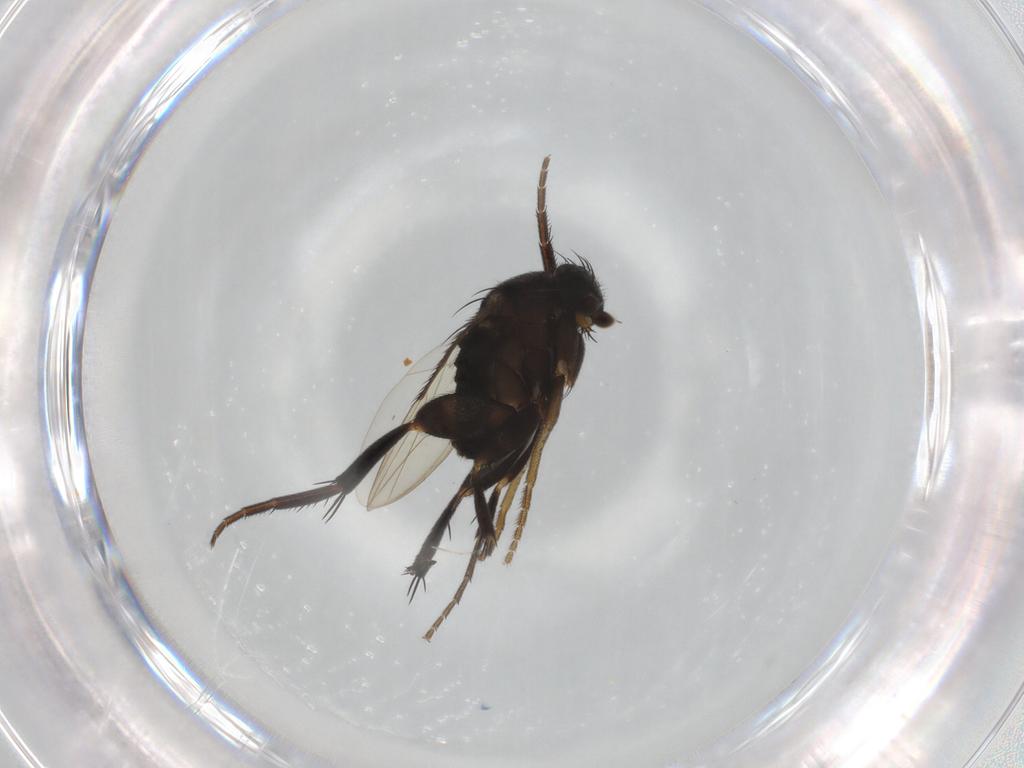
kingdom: Animalia
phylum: Arthropoda
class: Insecta
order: Diptera
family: Phoridae
